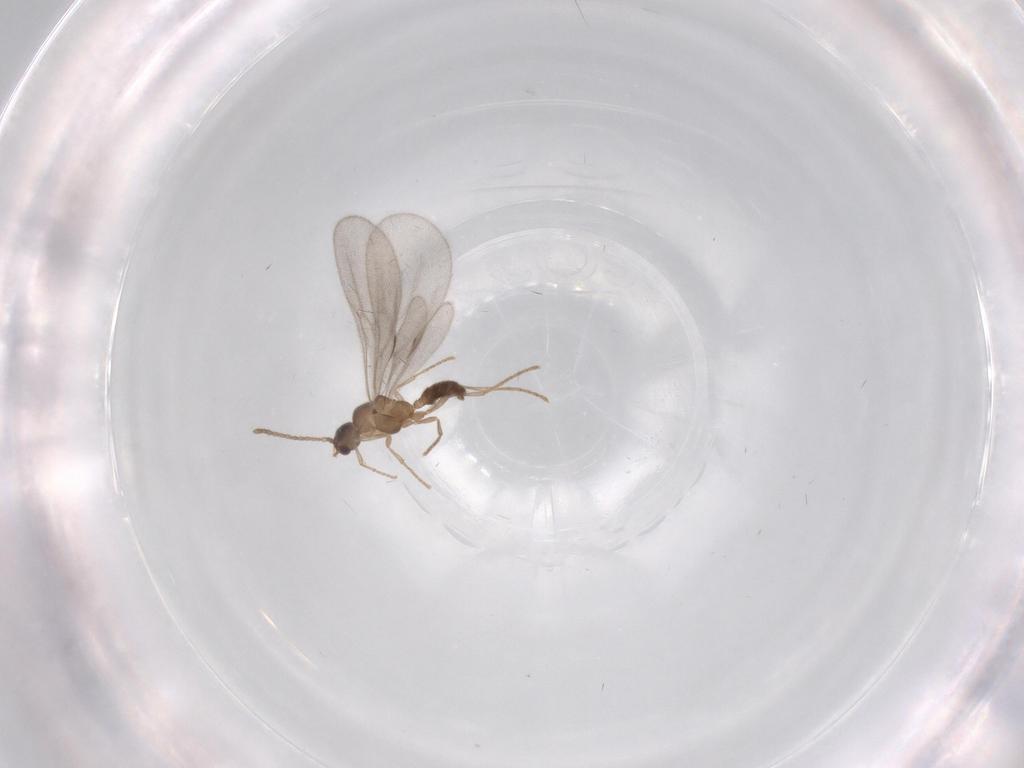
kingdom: Animalia
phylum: Arthropoda
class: Insecta
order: Hymenoptera
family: Formicidae
